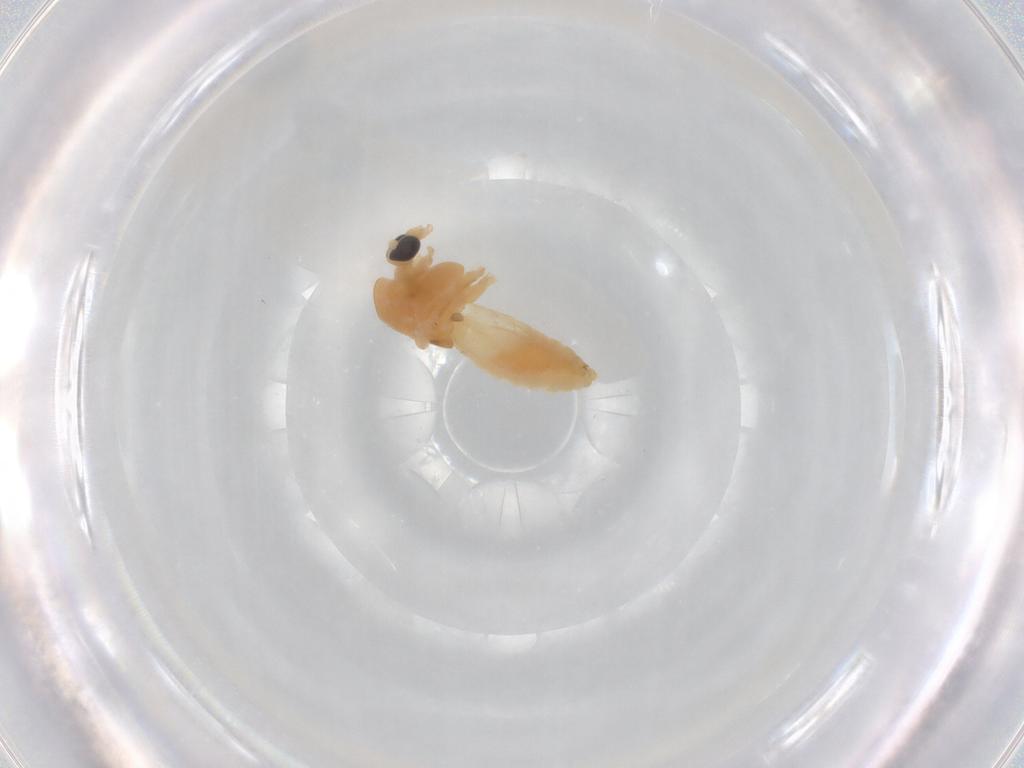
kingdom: Animalia
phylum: Arthropoda
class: Insecta
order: Diptera
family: Chironomidae
